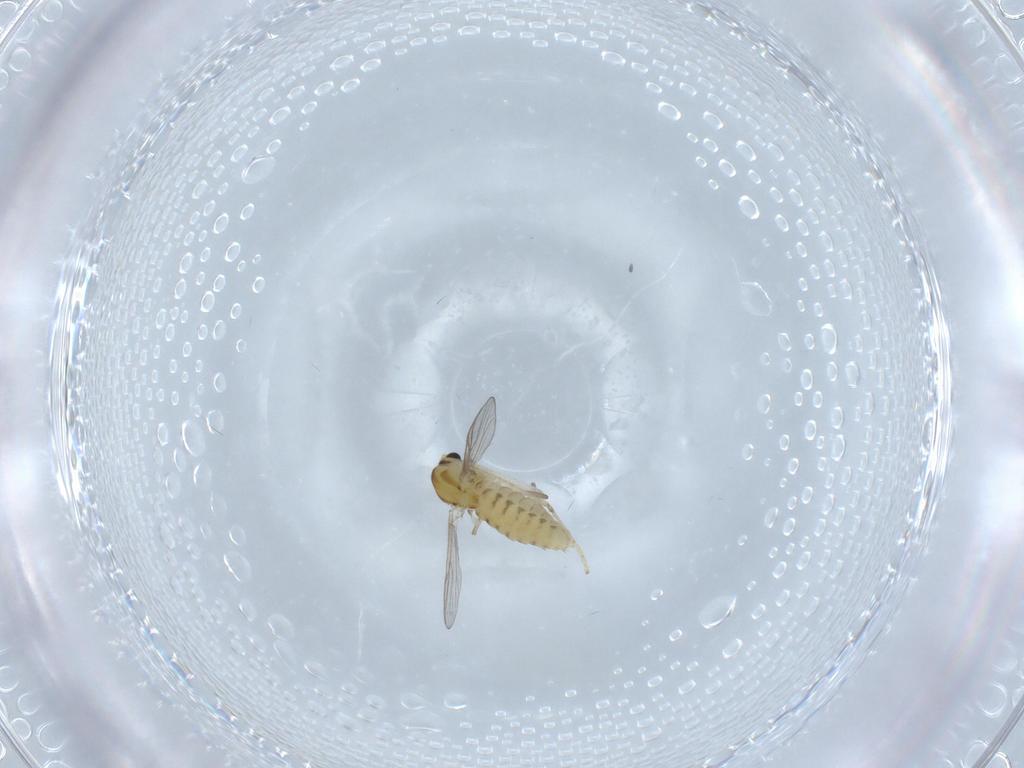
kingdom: Animalia
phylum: Arthropoda
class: Insecta
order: Diptera
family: Chironomidae
